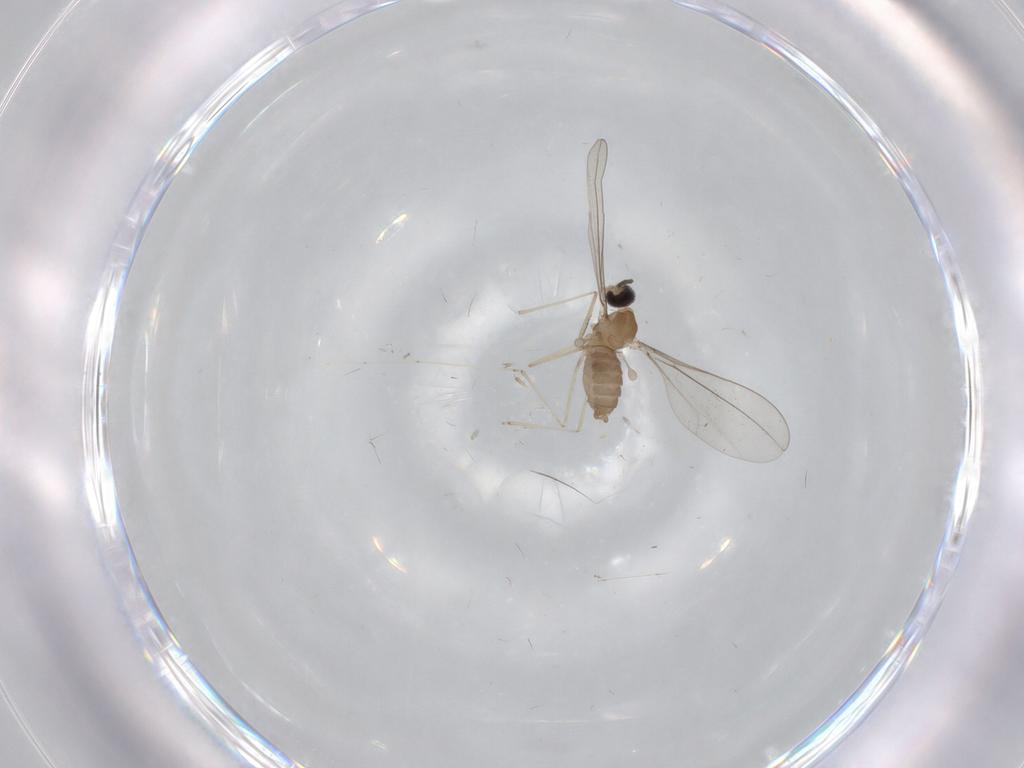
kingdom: Animalia
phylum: Arthropoda
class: Insecta
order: Diptera
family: Cecidomyiidae
